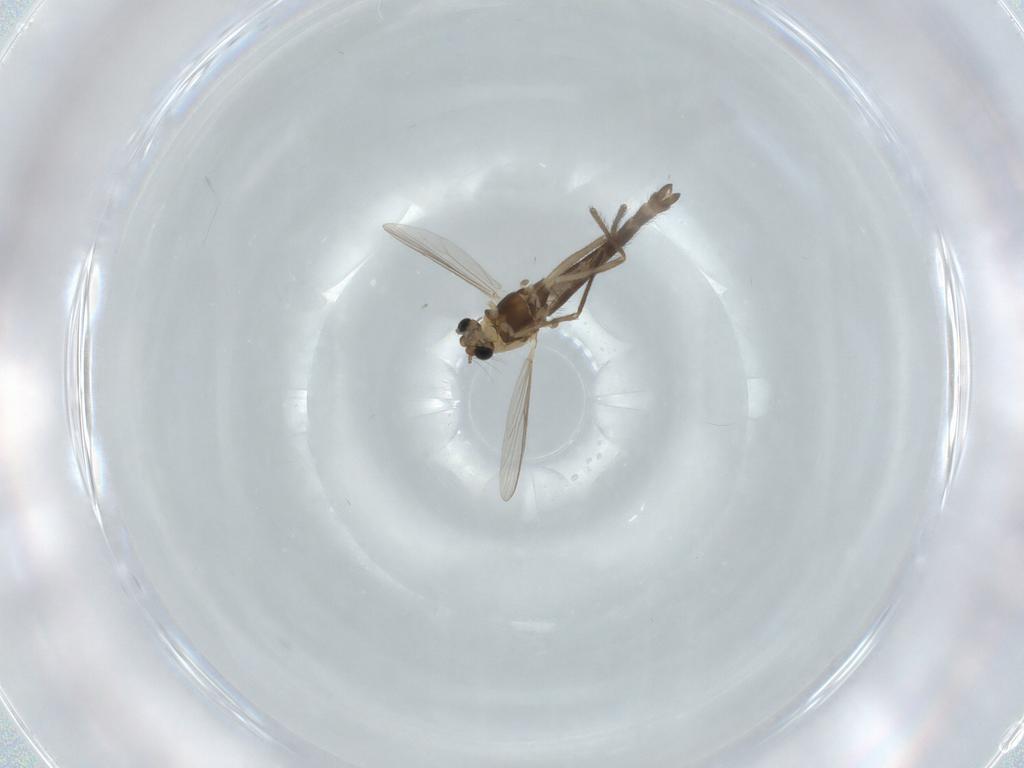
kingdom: Animalia
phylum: Arthropoda
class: Insecta
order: Diptera
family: Chironomidae
